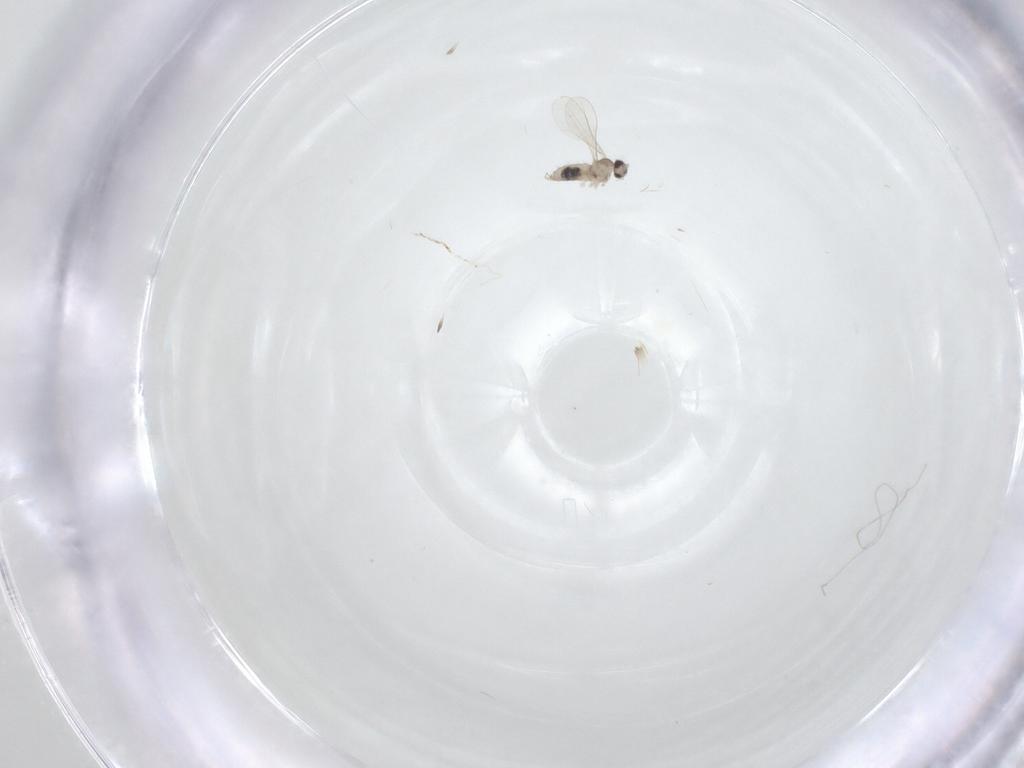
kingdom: Animalia
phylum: Arthropoda
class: Insecta
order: Diptera
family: Cecidomyiidae
